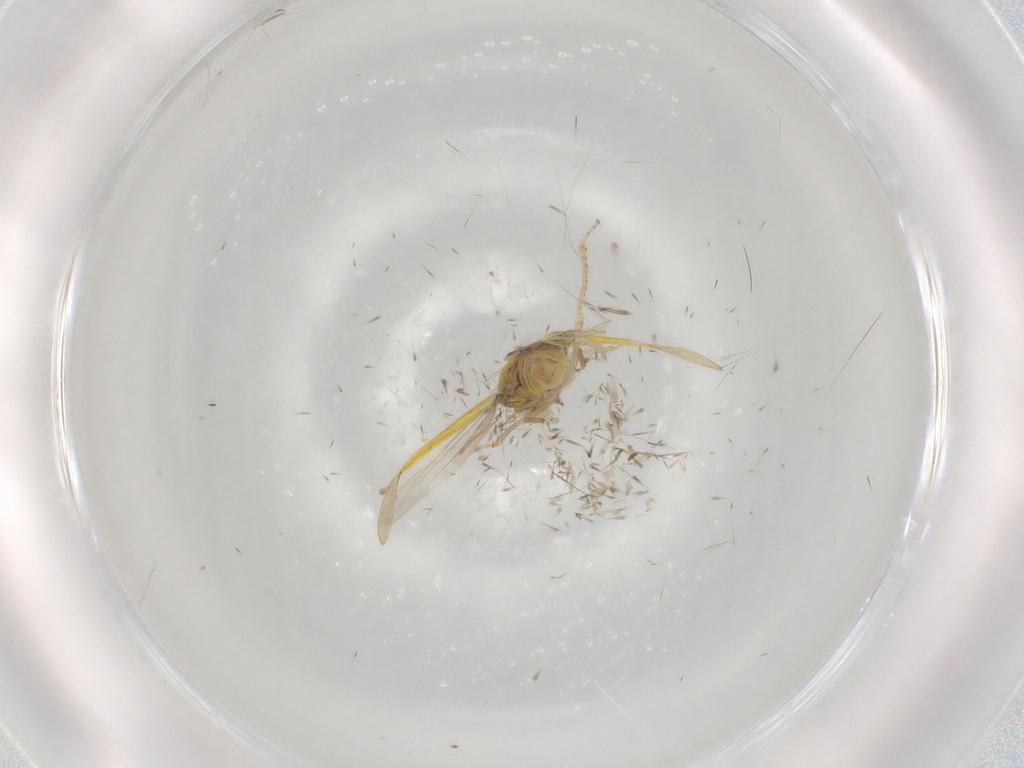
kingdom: Animalia
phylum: Arthropoda
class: Insecta
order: Hemiptera
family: Cicadellidae
